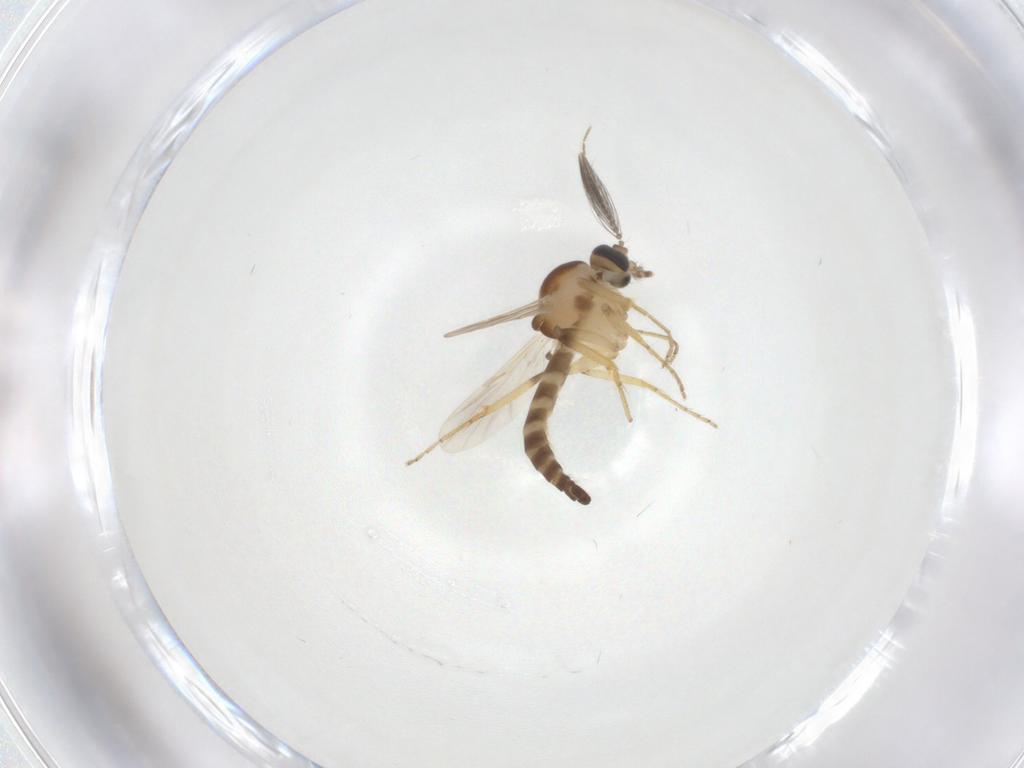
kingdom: Animalia
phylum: Arthropoda
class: Insecta
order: Diptera
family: Ceratopogonidae
